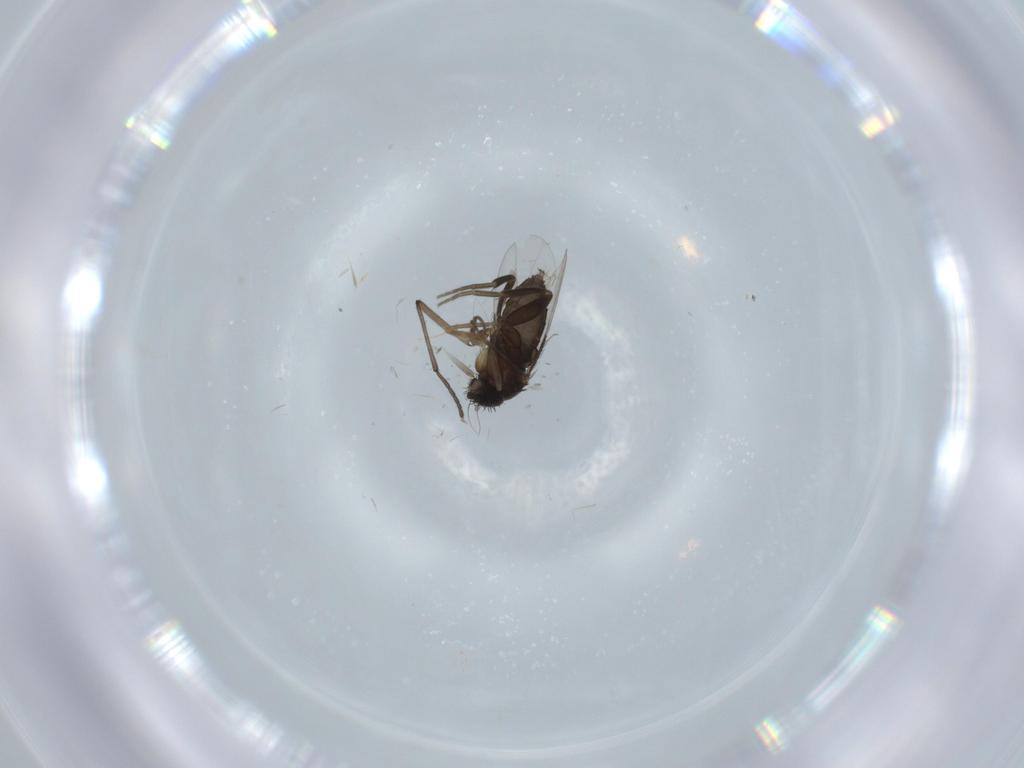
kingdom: Animalia
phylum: Arthropoda
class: Insecta
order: Diptera
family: Phoridae
